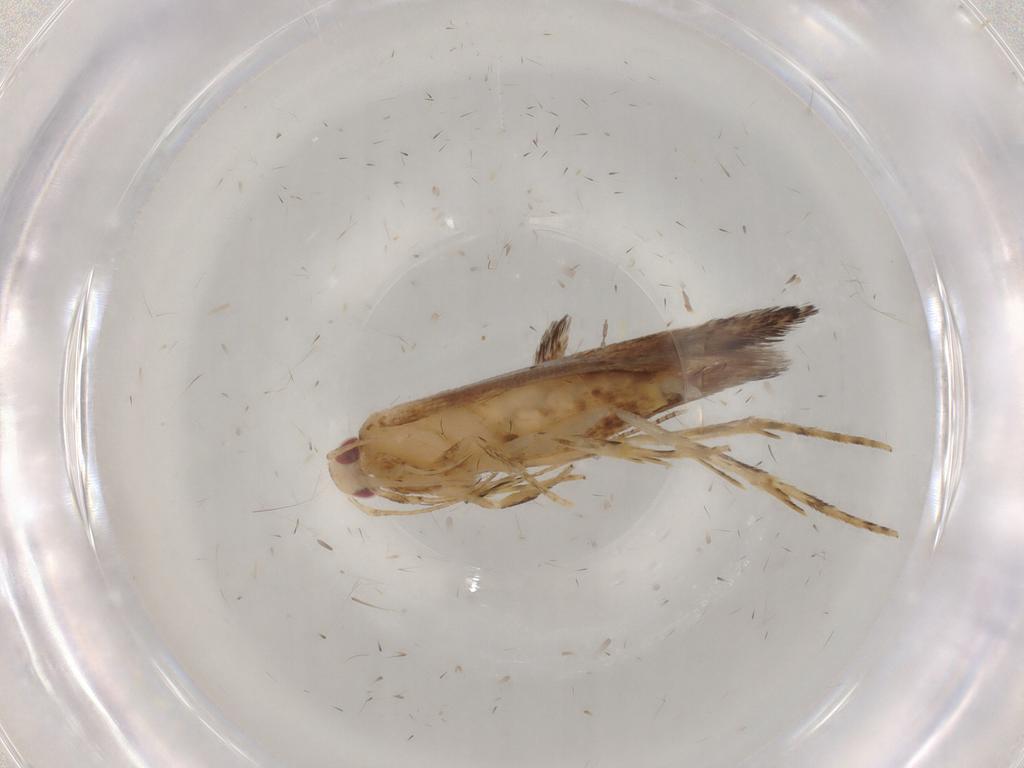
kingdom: Animalia
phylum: Arthropoda
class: Insecta
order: Lepidoptera
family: Cosmopterigidae
